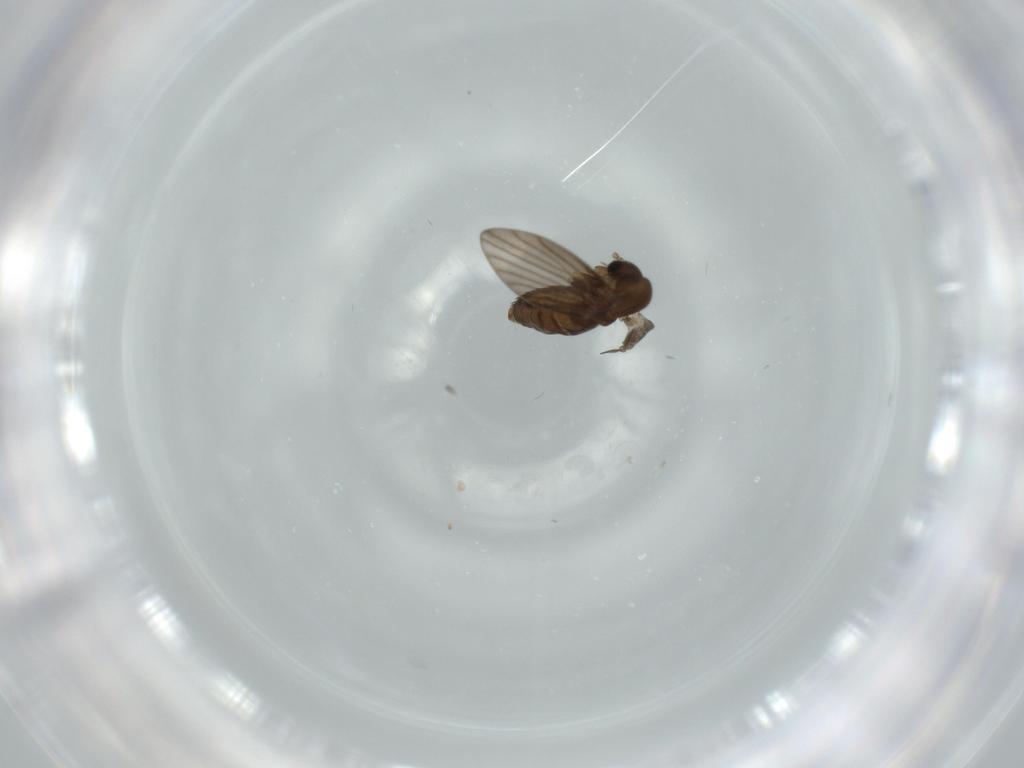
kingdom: Animalia
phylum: Arthropoda
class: Insecta
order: Diptera
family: Psychodidae
